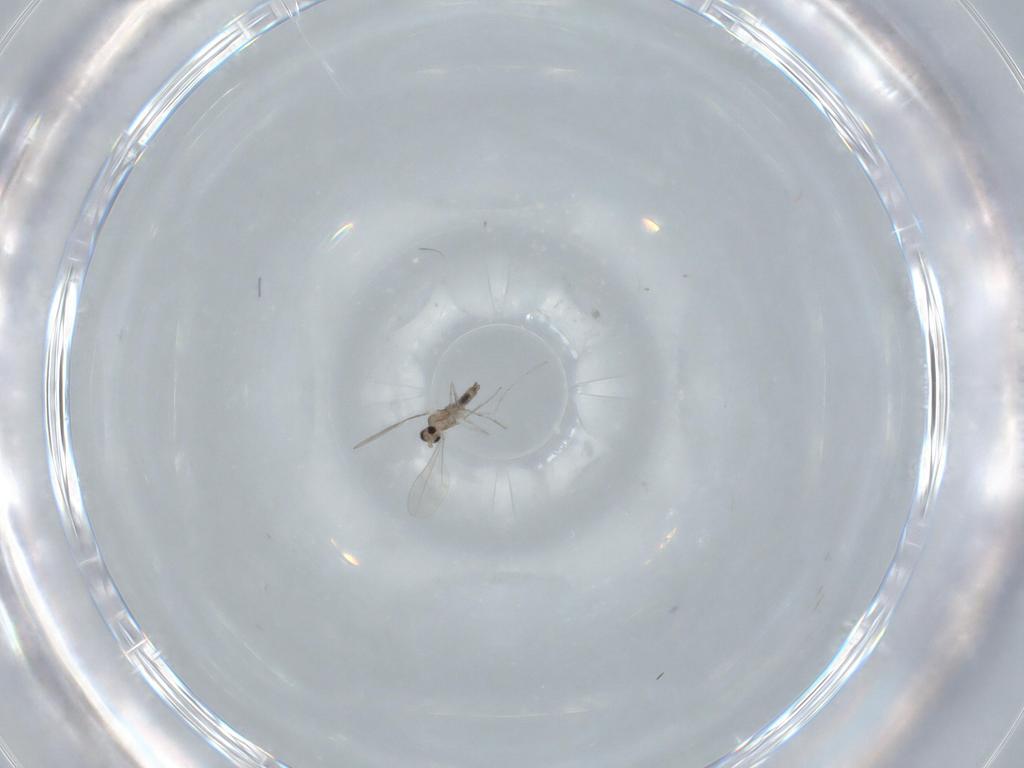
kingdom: Animalia
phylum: Arthropoda
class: Insecta
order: Diptera
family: Cecidomyiidae
